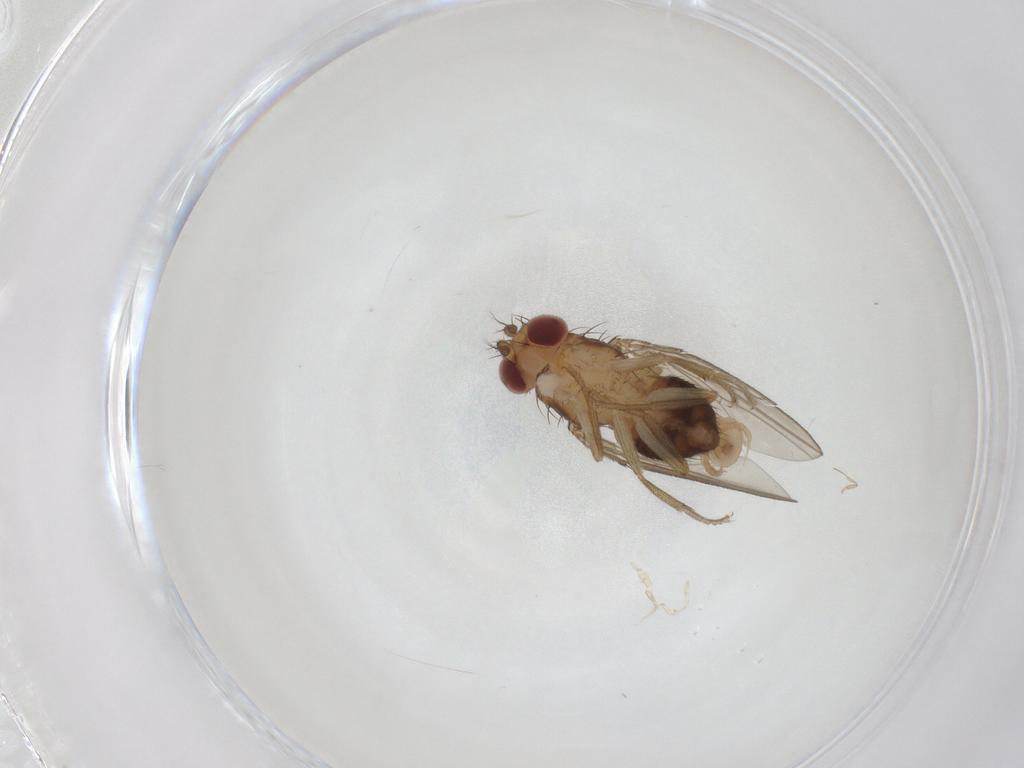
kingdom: Animalia
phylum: Arthropoda
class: Insecta
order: Diptera
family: Drosophilidae
